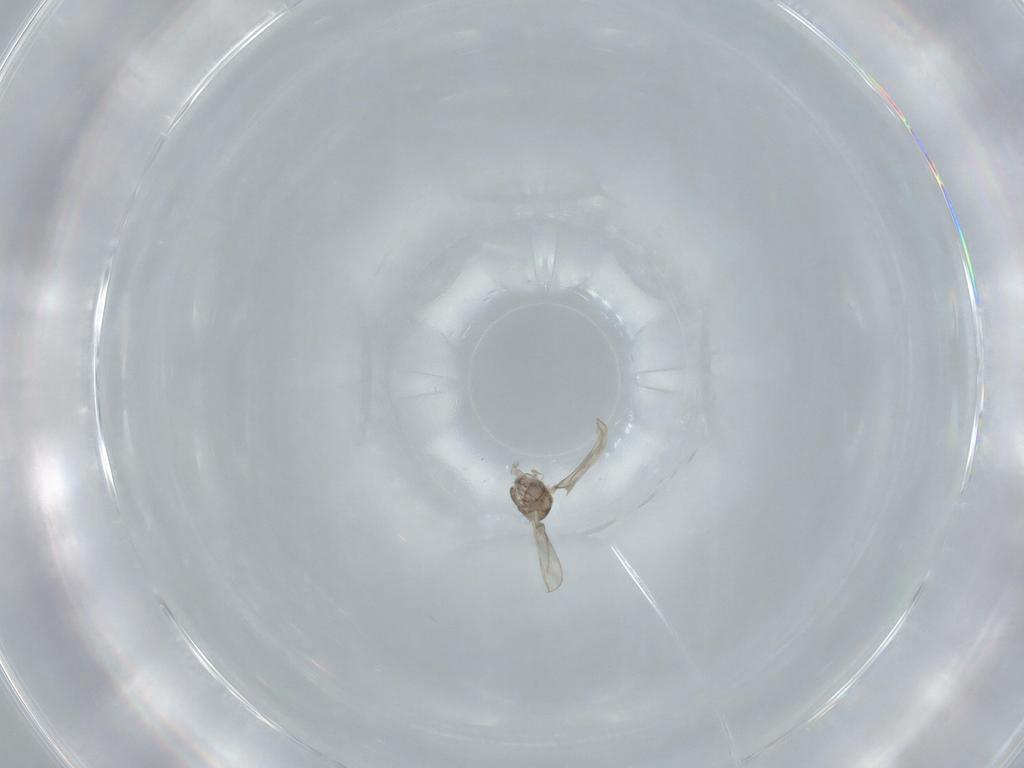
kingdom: Animalia
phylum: Arthropoda
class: Insecta
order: Diptera
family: Cecidomyiidae
